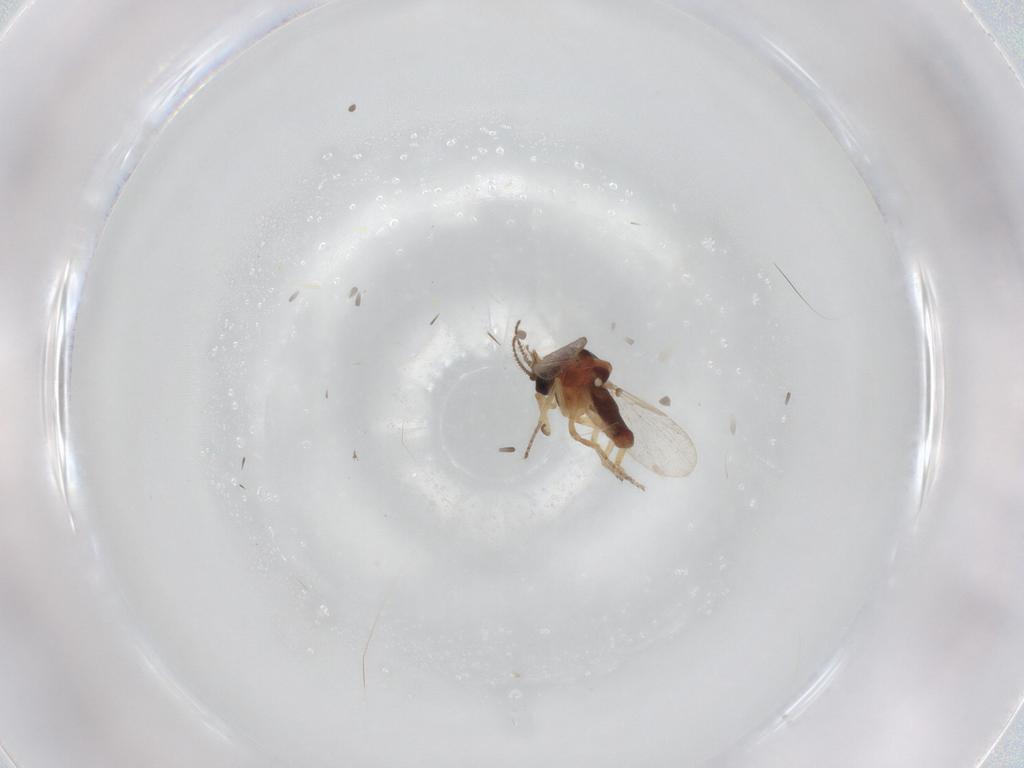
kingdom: Animalia
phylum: Arthropoda
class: Insecta
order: Diptera
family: Ceratopogonidae
